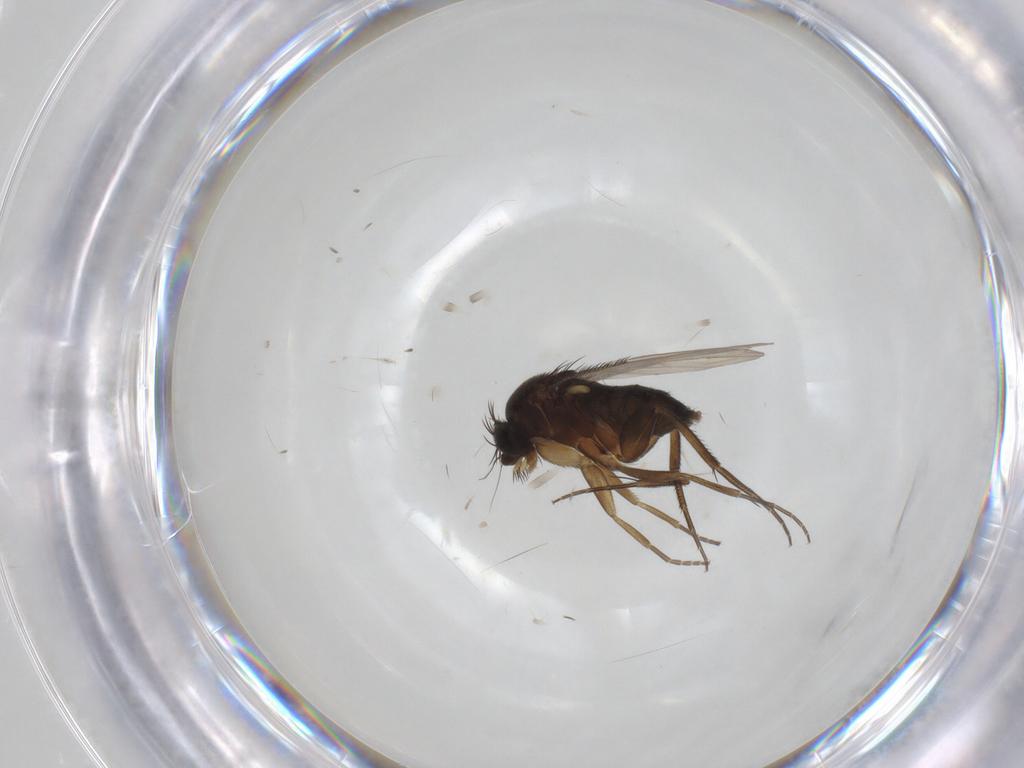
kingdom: Animalia
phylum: Arthropoda
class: Insecta
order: Diptera
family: Phoridae
